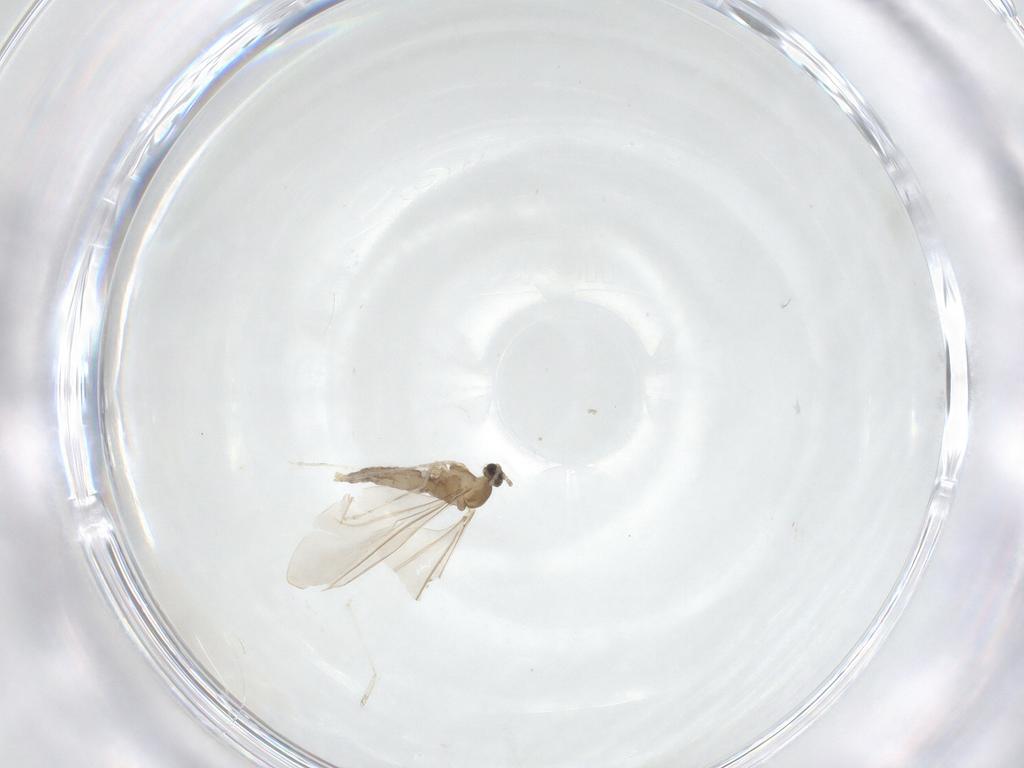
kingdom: Animalia
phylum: Arthropoda
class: Insecta
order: Diptera
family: Cecidomyiidae
